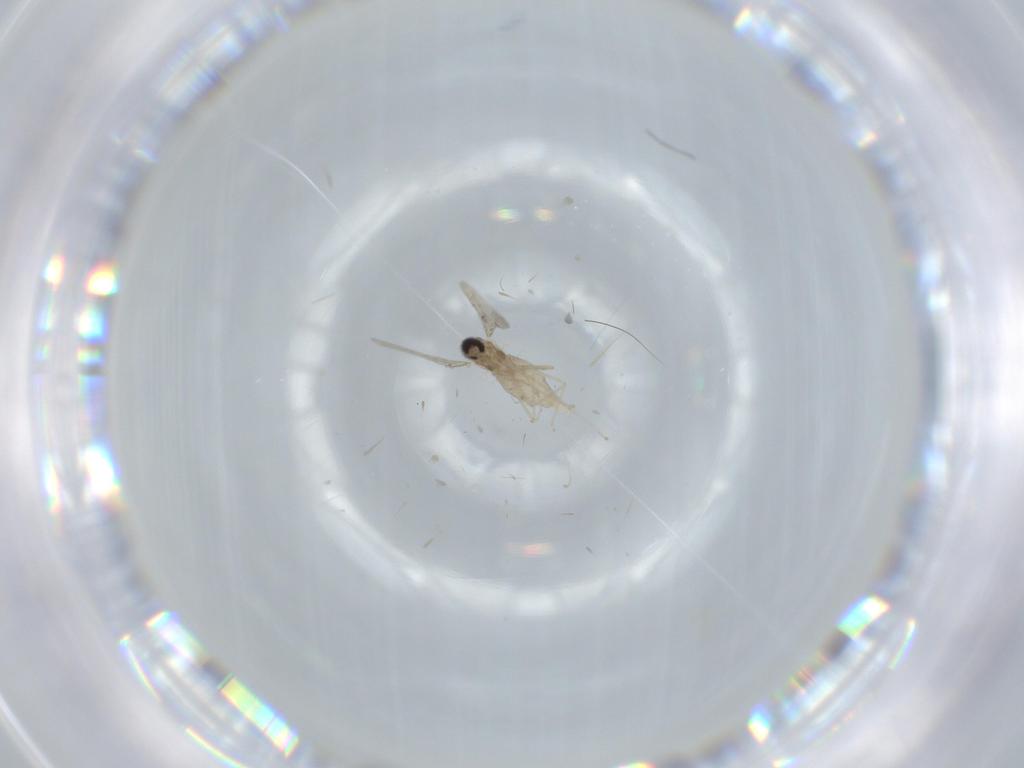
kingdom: Animalia
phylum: Arthropoda
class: Insecta
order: Diptera
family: Cecidomyiidae
